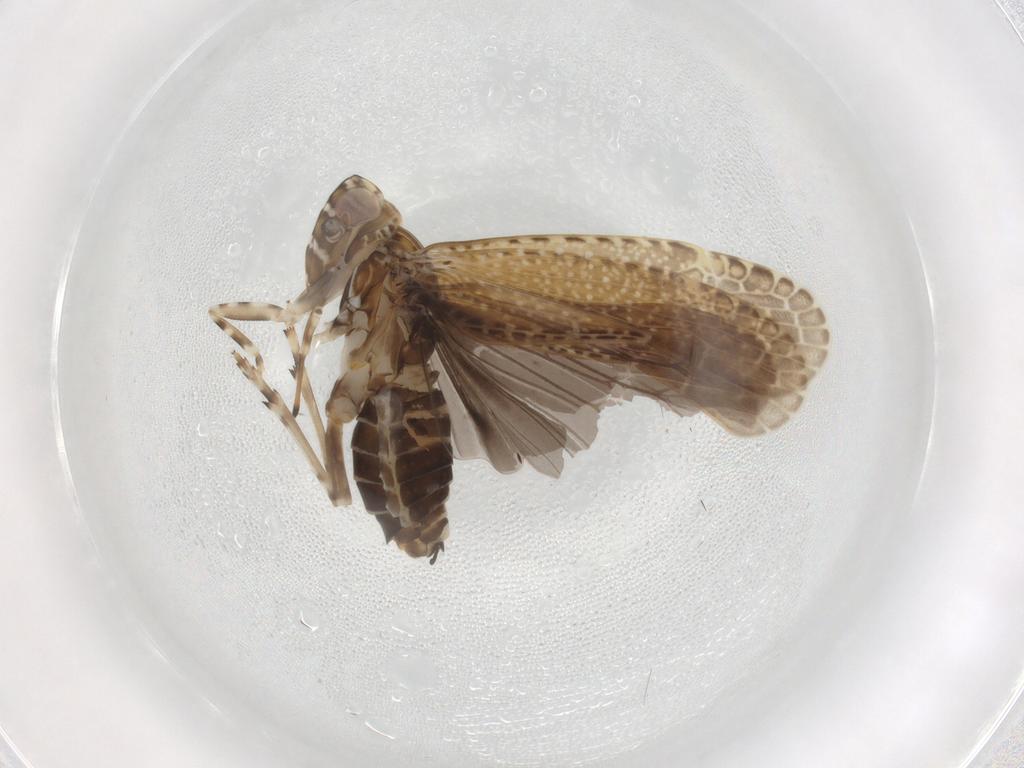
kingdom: Animalia
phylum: Arthropoda
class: Insecta
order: Hemiptera
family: Achilidae
